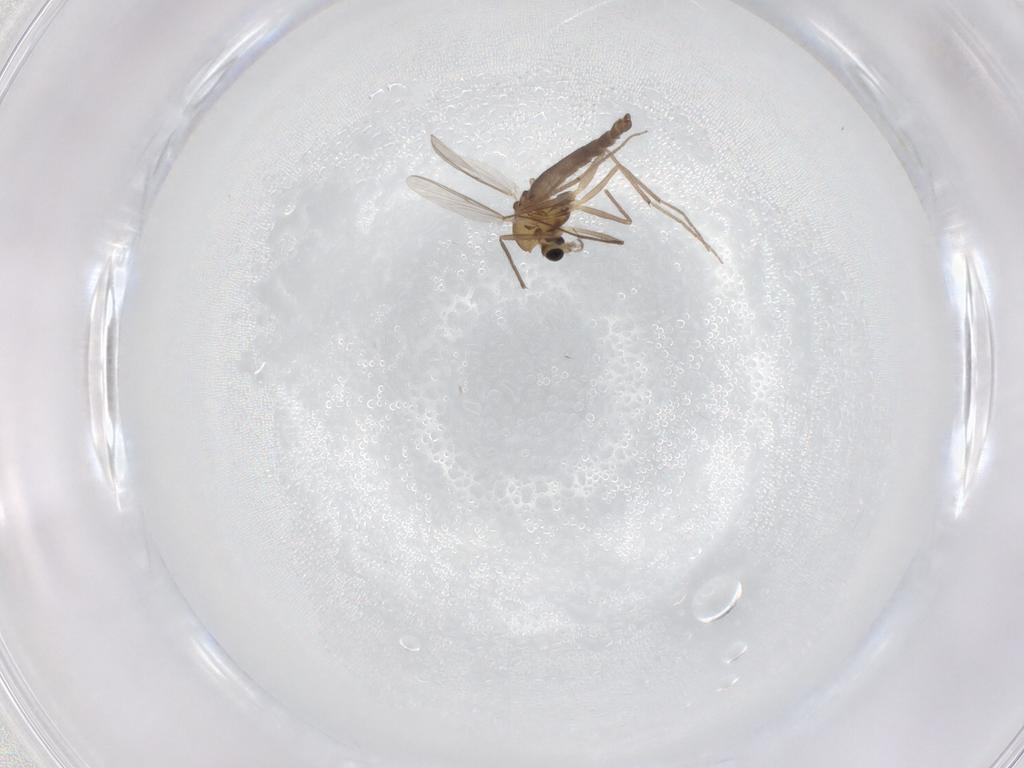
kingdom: Animalia
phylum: Arthropoda
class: Insecta
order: Diptera
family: Chironomidae
